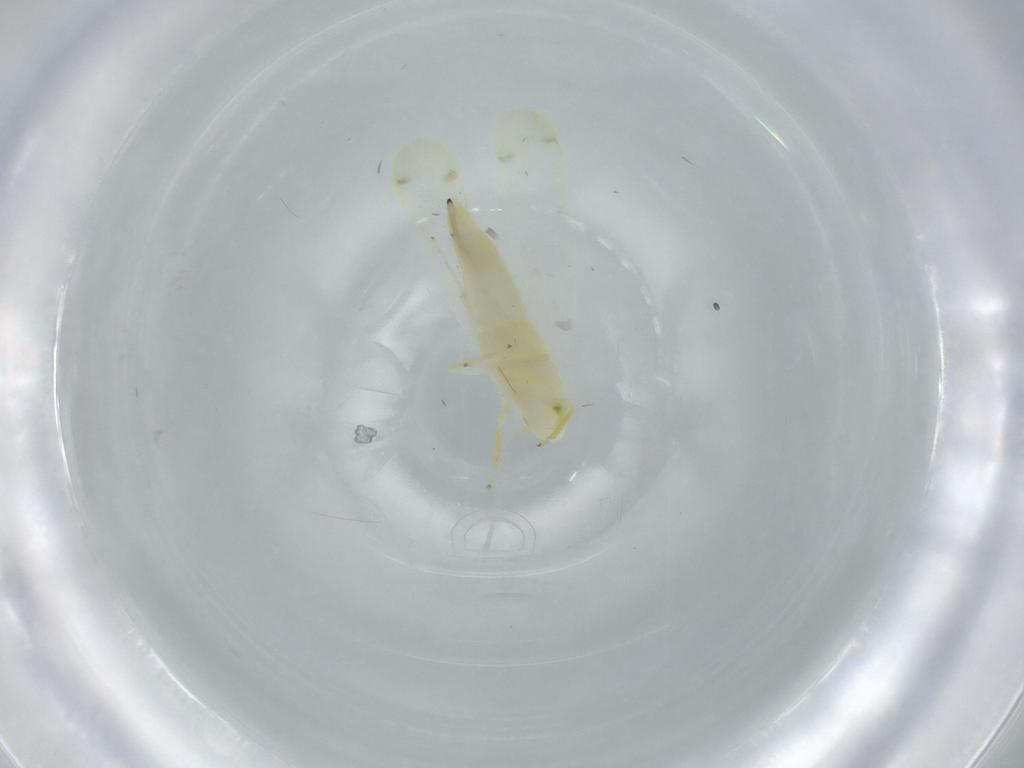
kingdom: Animalia
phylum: Arthropoda
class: Insecta
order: Hemiptera
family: Cicadellidae
